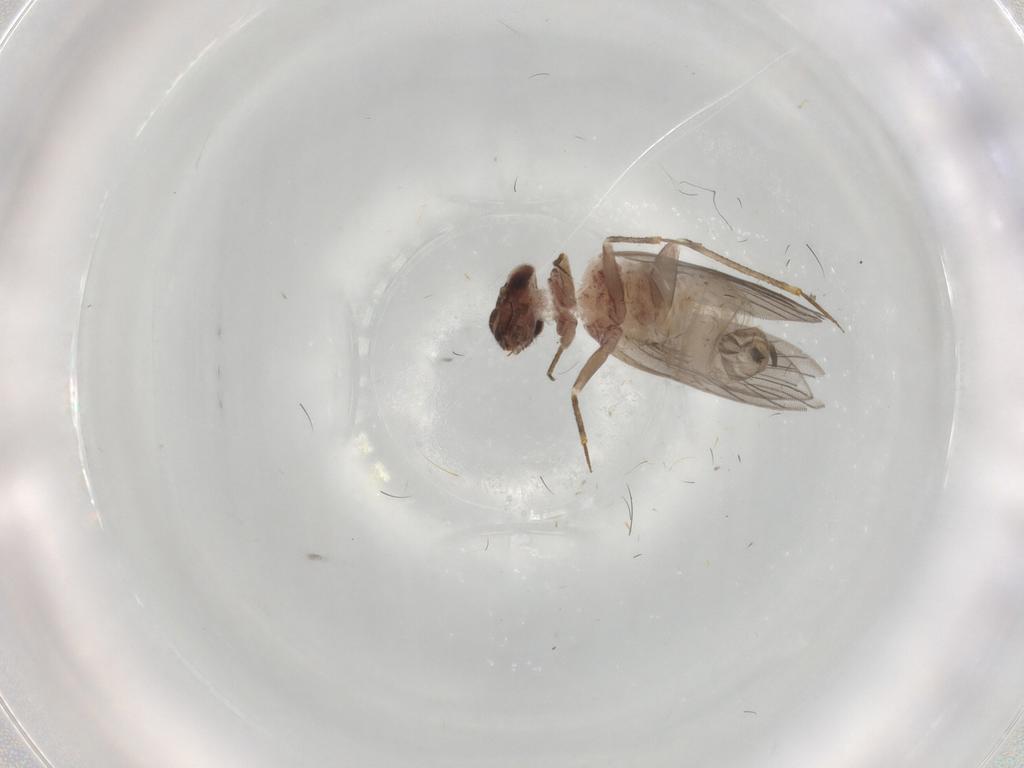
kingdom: Animalia
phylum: Arthropoda
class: Insecta
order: Psocodea
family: Lepidopsocidae
